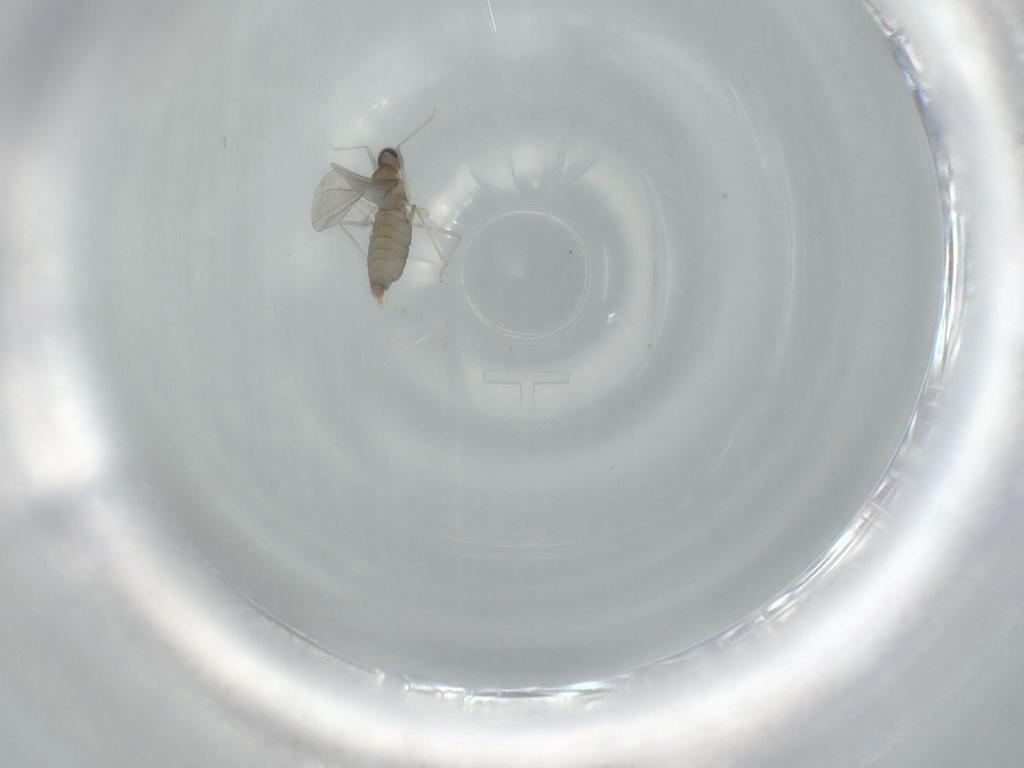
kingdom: Animalia
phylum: Arthropoda
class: Insecta
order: Diptera
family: Cecidomyiidae
